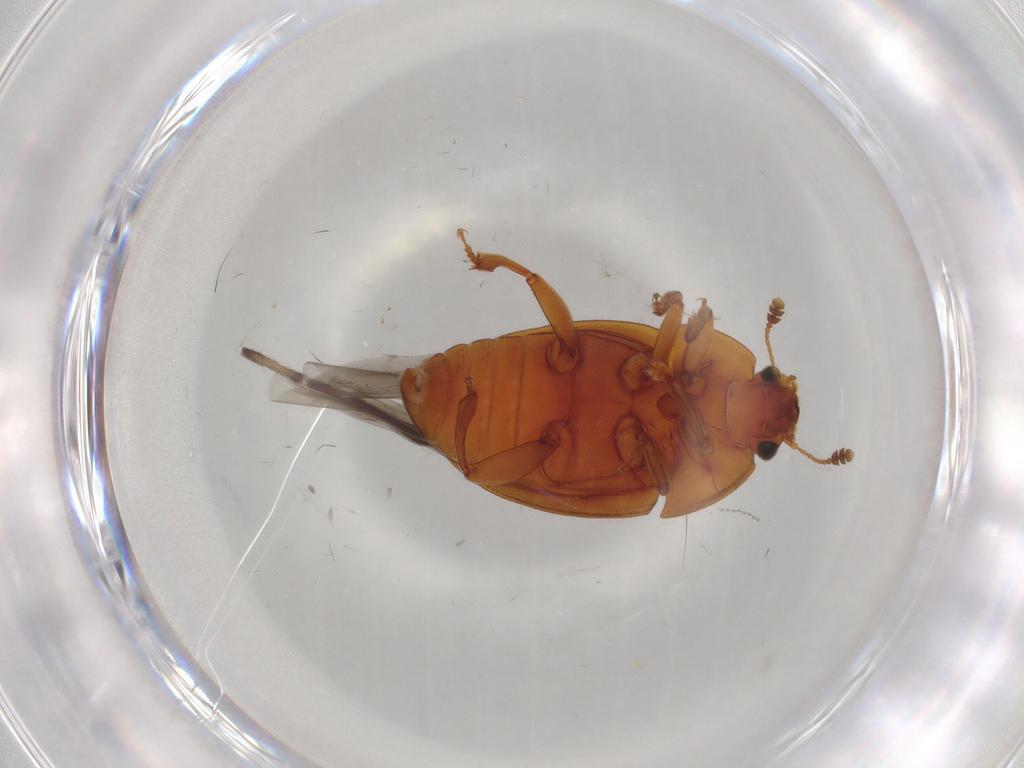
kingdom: Animalia
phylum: Arthropoda
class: Insecta
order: Coleoptera
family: Nitidulidae
